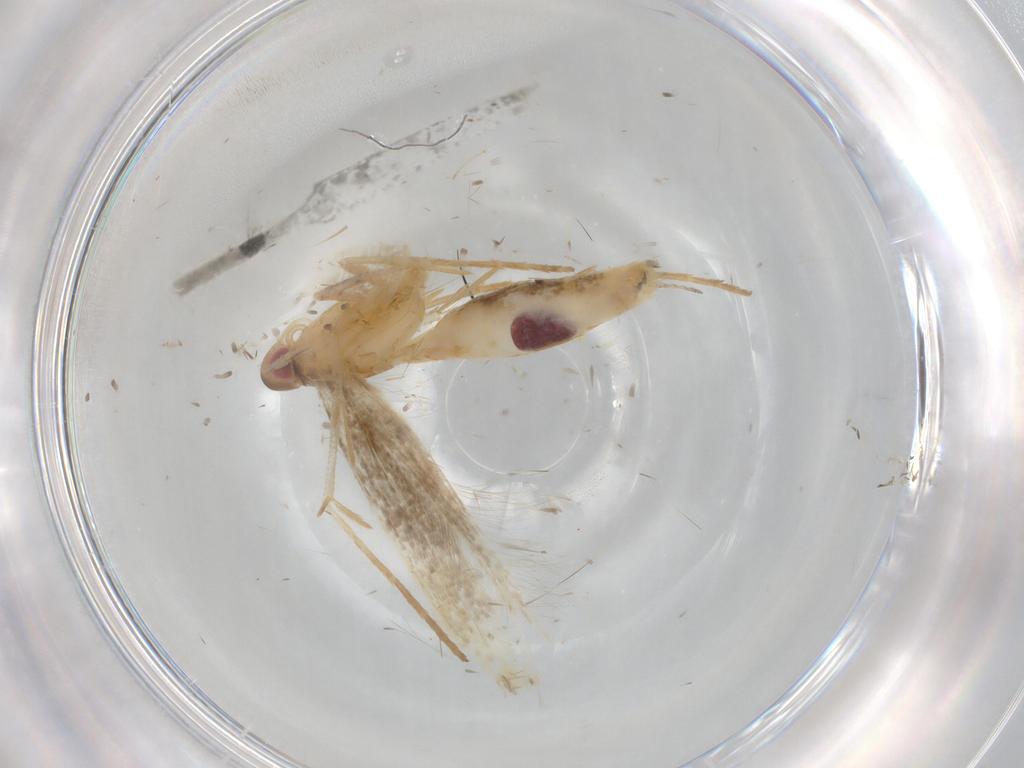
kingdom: Animalia
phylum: Arthropoda
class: Insecta
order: Lepidoptera
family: Cosmopterigidae
